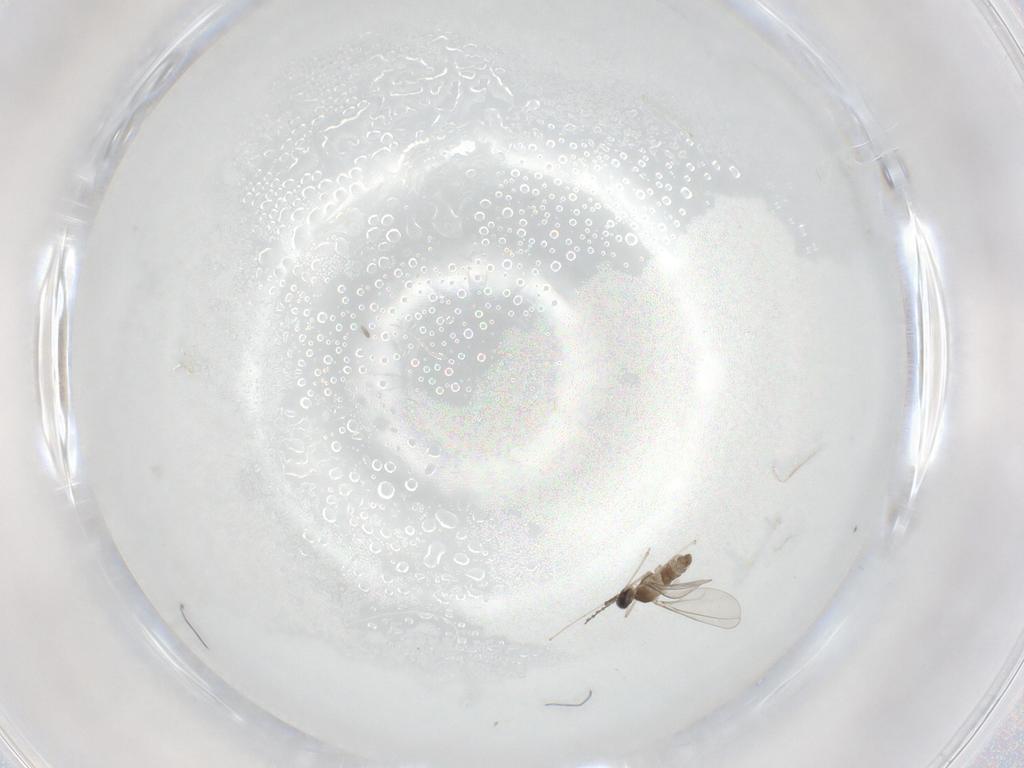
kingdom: Animalia
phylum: Arthropoda
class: Insecta
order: Diptera
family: Cecidomyiidae
